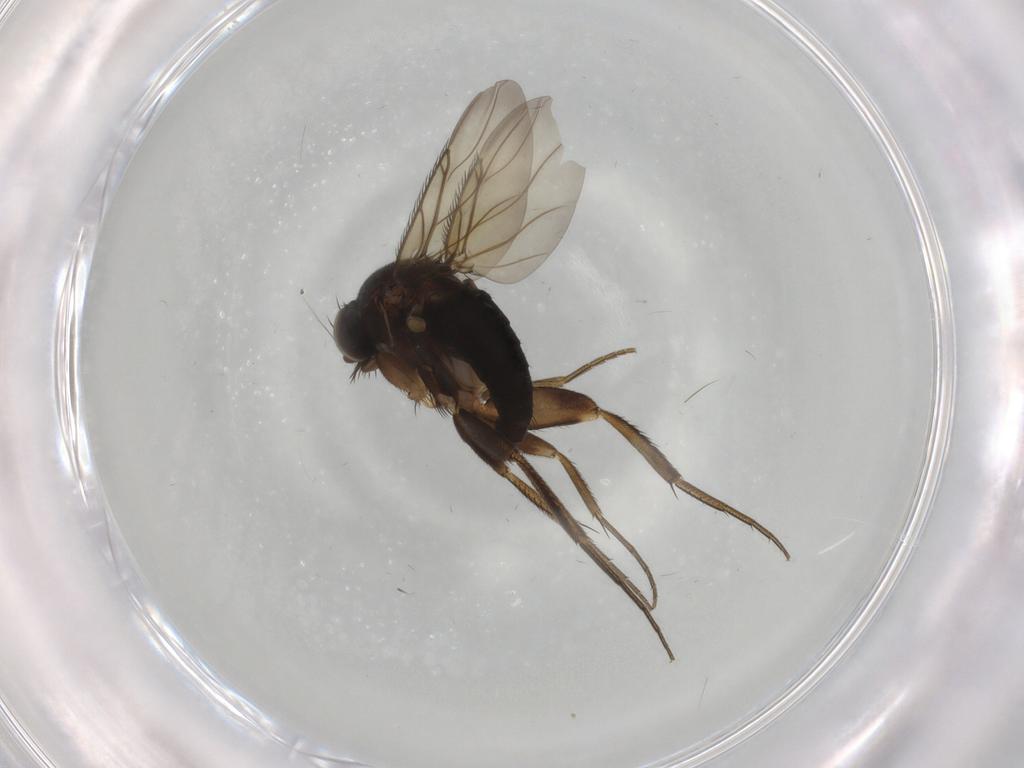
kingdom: Animalia
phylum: Arthropoda
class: Insecta
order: Diptera
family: Phoridae
